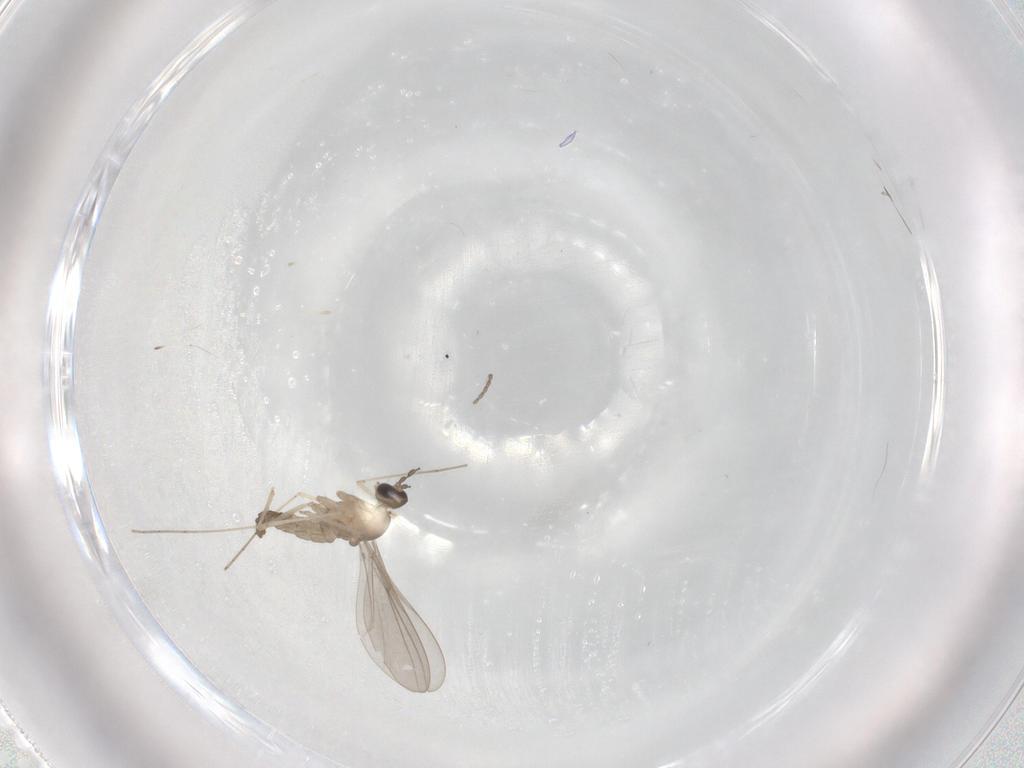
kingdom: Animalia
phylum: Arthropoda
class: Insecta
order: Diptera
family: Cecidomyiidae
